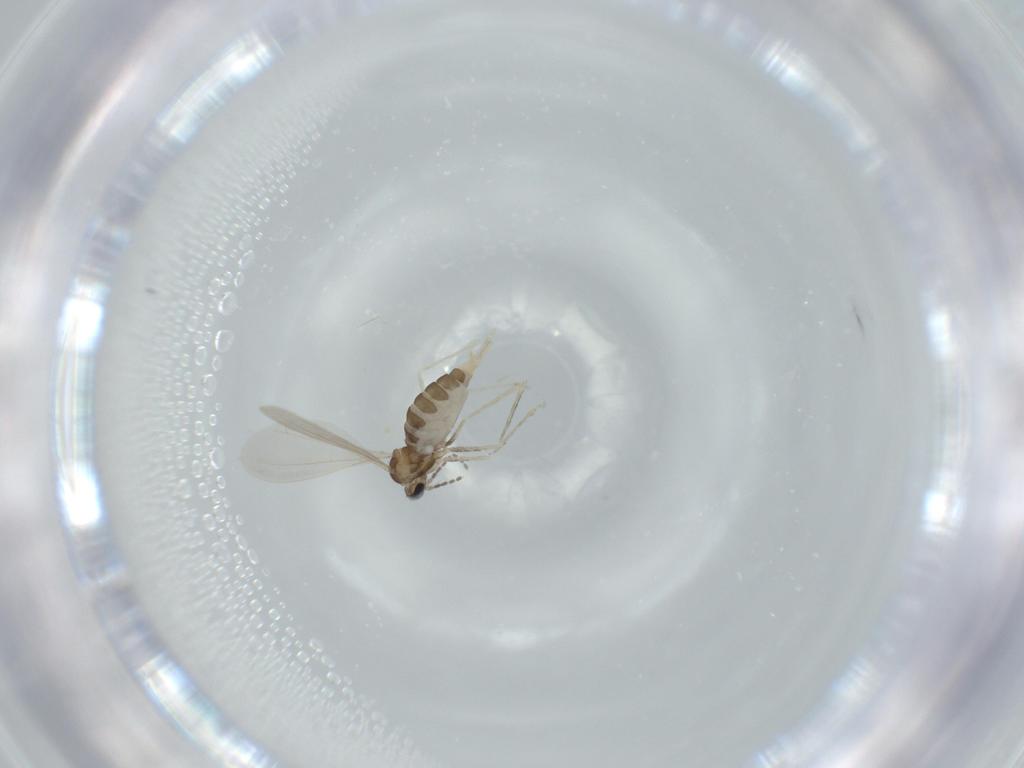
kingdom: Animalia
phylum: Arthropoda
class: Insecta
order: Diptera
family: Cecidomyiidae
